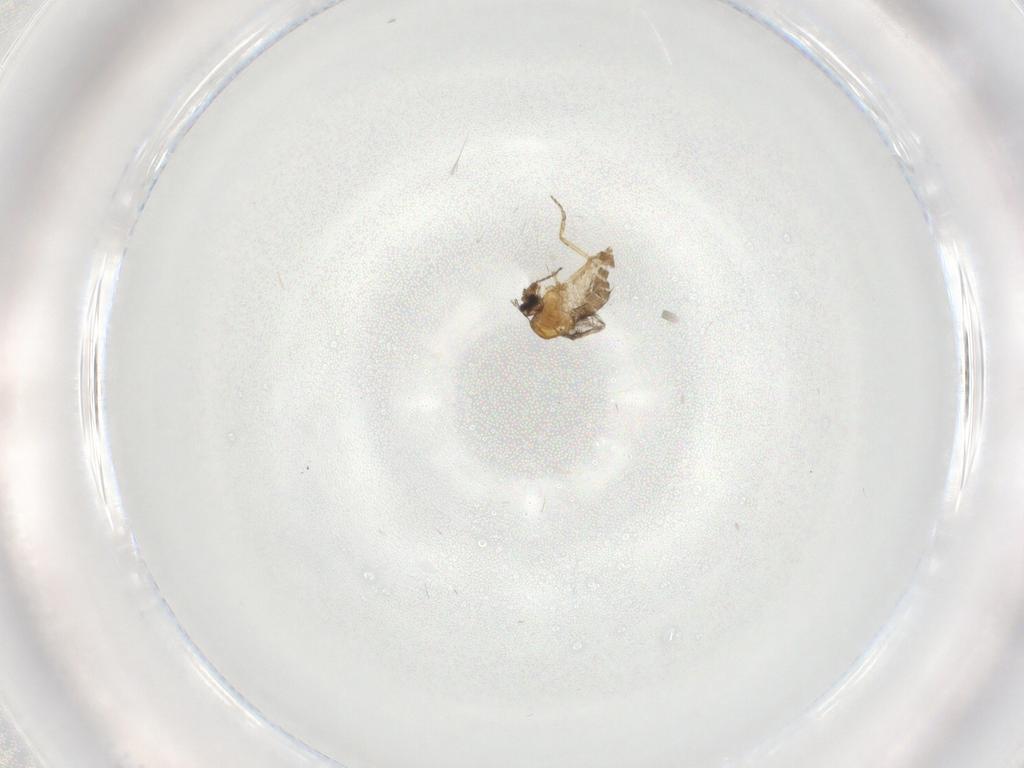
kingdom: Animalia
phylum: Arthropoda
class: Insecta
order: Diptera
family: Ceratopogonidae
